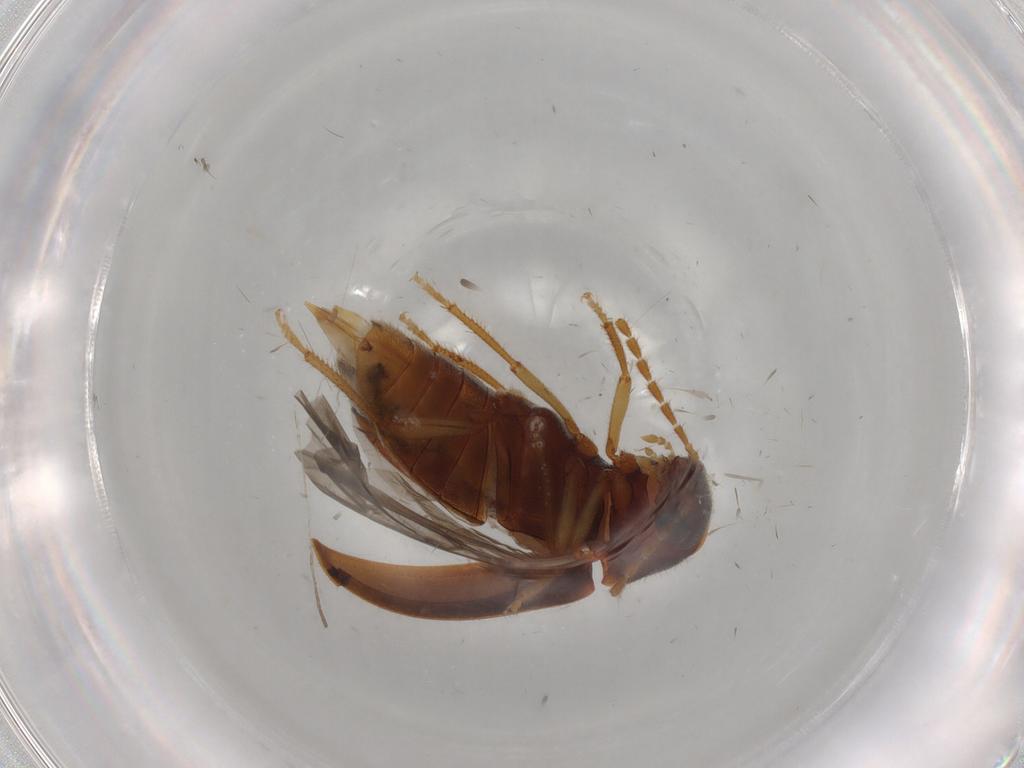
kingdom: Animalia
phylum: Arthropoda
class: Insecta
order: Coleoptera
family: Ptilodactylidae
